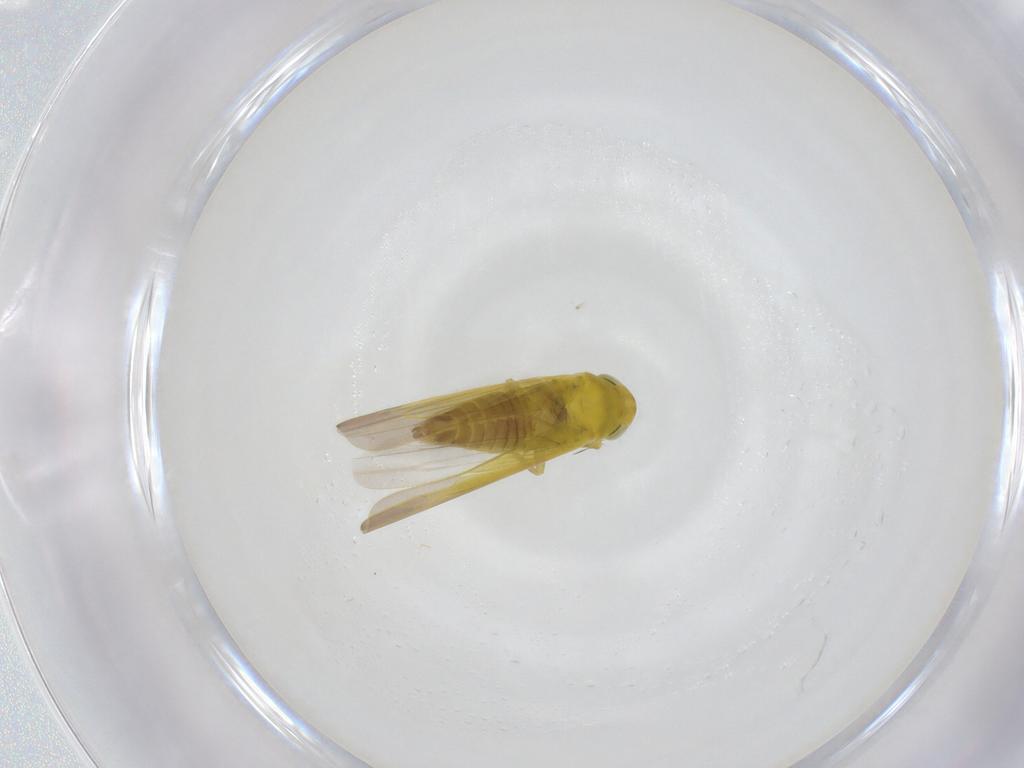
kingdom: Animalia
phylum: Arthropoda
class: Insecta
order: Hemiptera
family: Cicadellidae
